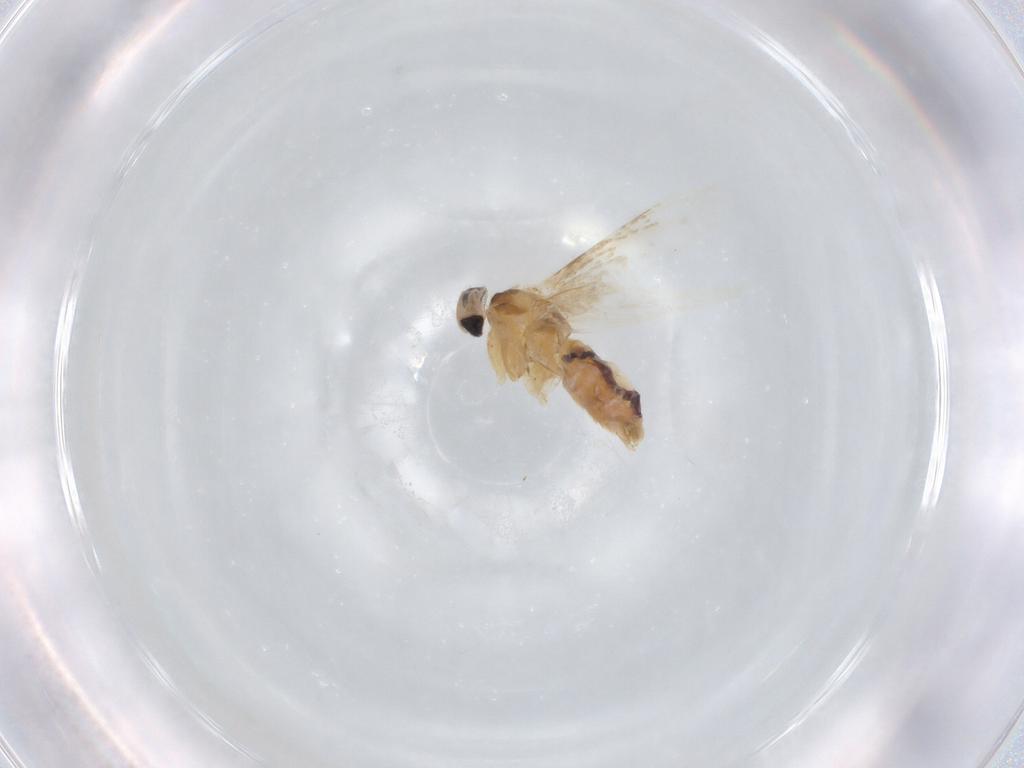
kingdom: Animalia
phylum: Arthropoda
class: Insecta
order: Lepidoptera
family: Bucculatricidae
